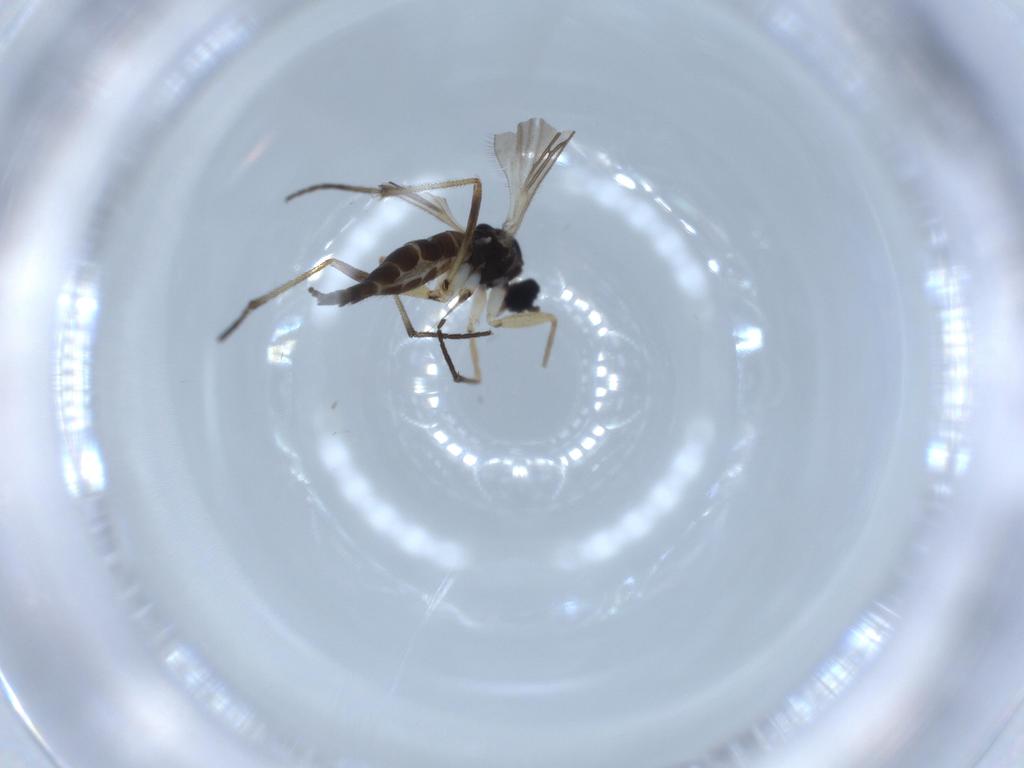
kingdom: Animalia
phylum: Arthropoda
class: Insecta
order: Diptera
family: Sciaridae
